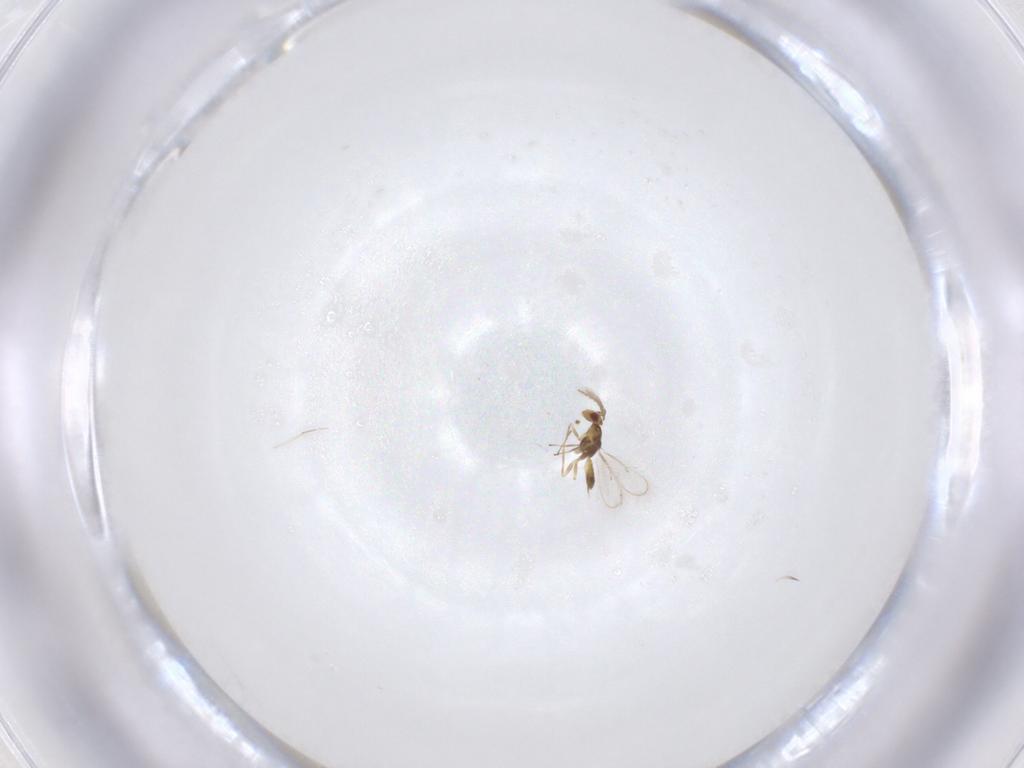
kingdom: Animalia
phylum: Arthropoda
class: Insecta
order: Hymenoptera
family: Eulophidae
